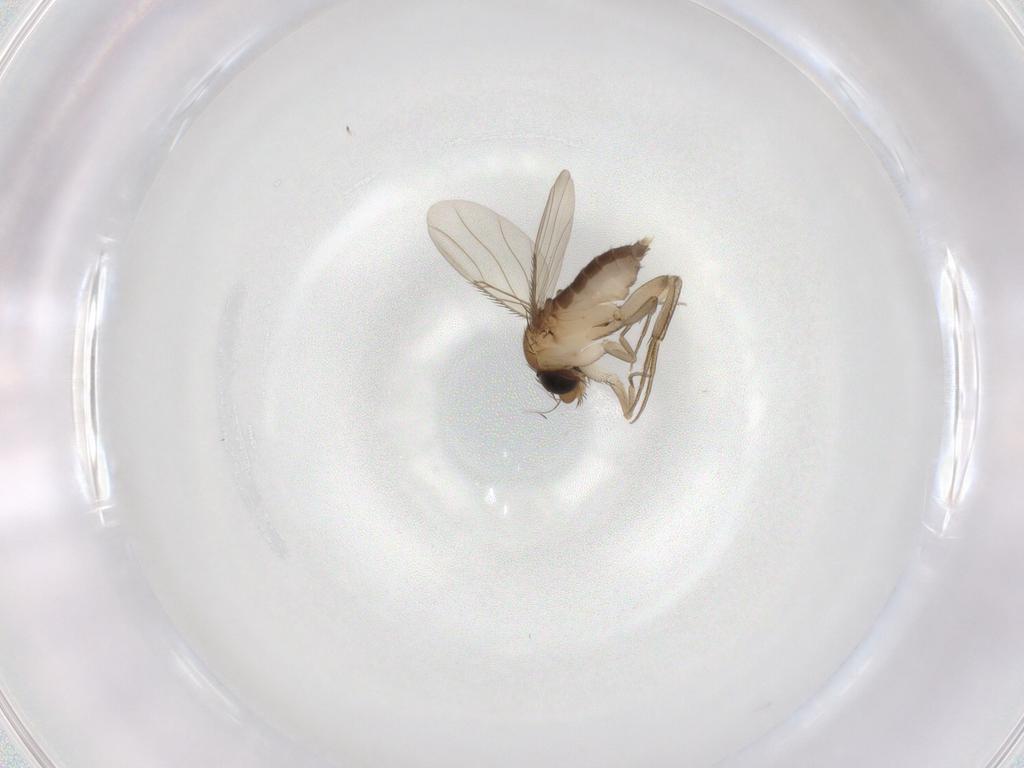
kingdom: Animalia
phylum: Arthropoda
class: Insecta
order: Diptera
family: Phoridae
